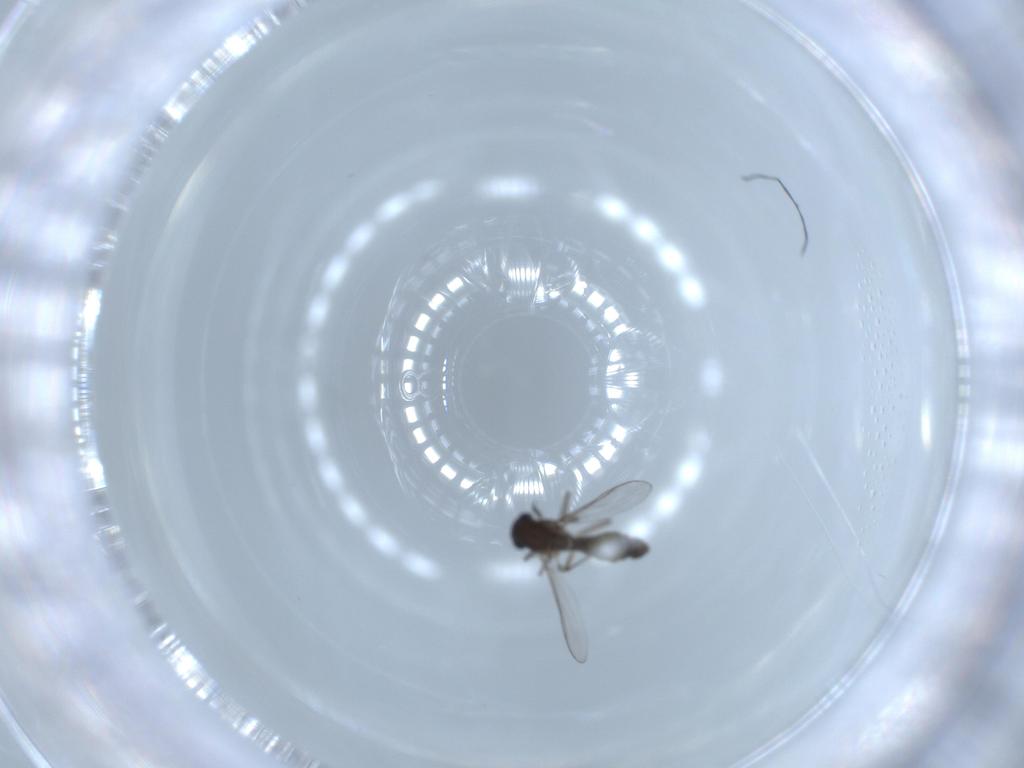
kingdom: Animalia
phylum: Arthropoda
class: Insecta
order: Diptera
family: Chironomidae
